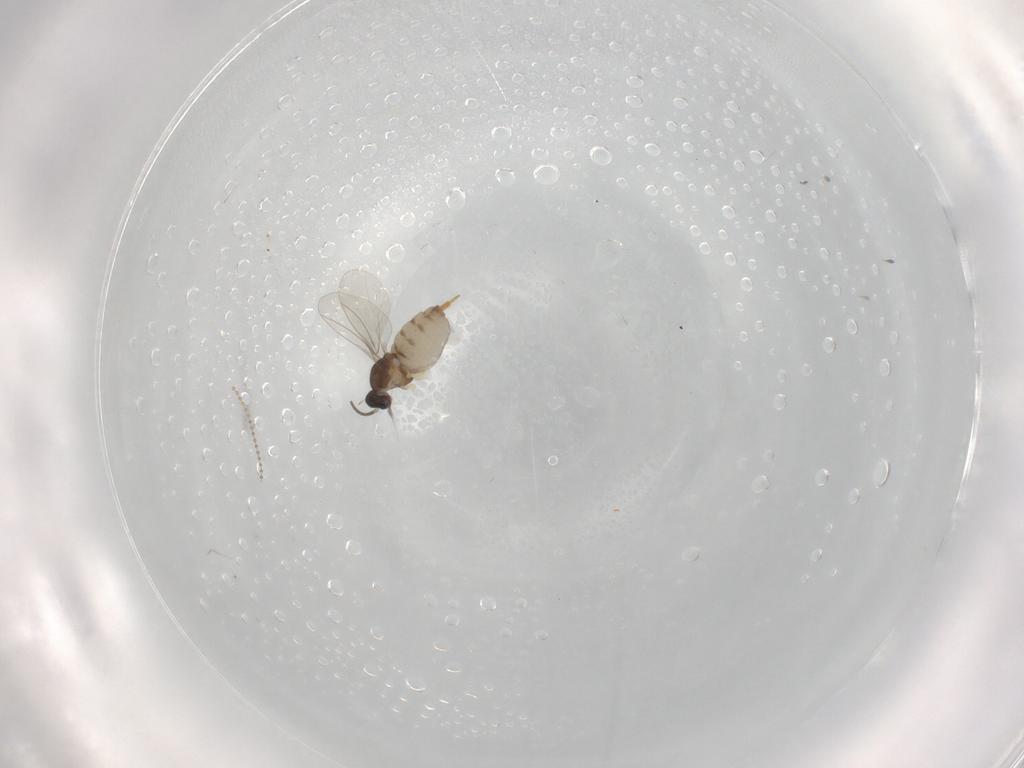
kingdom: Animalia
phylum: Arthropoda
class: Insecta
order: Diptera
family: Cecidomyiidae
